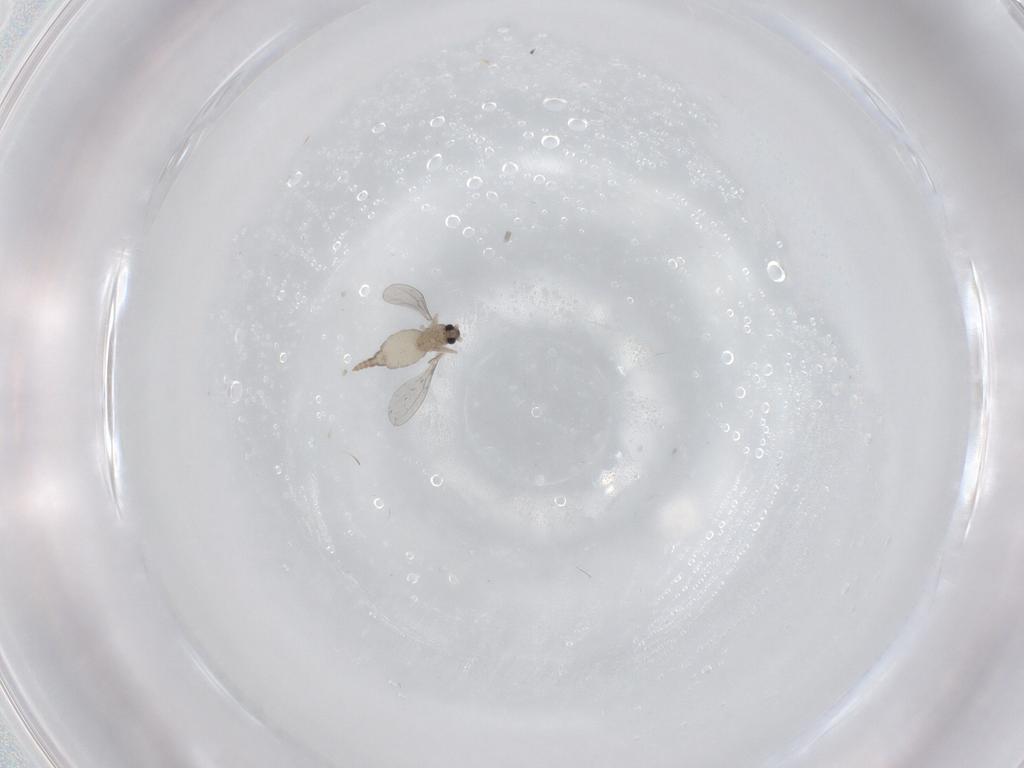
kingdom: Animalia
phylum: Arthropoda
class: Insecta
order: Diptera
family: Cecidomyiidae
